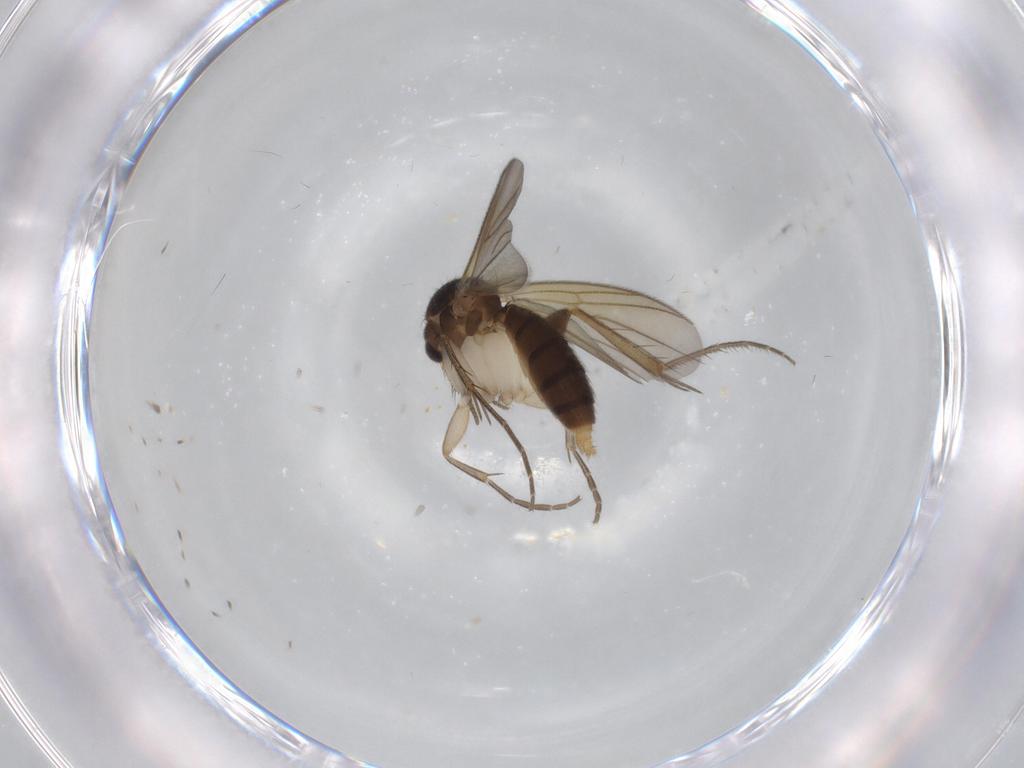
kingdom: Animalia
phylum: Arthropoda
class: Insecta
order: Diptera
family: Mycetophilidae
